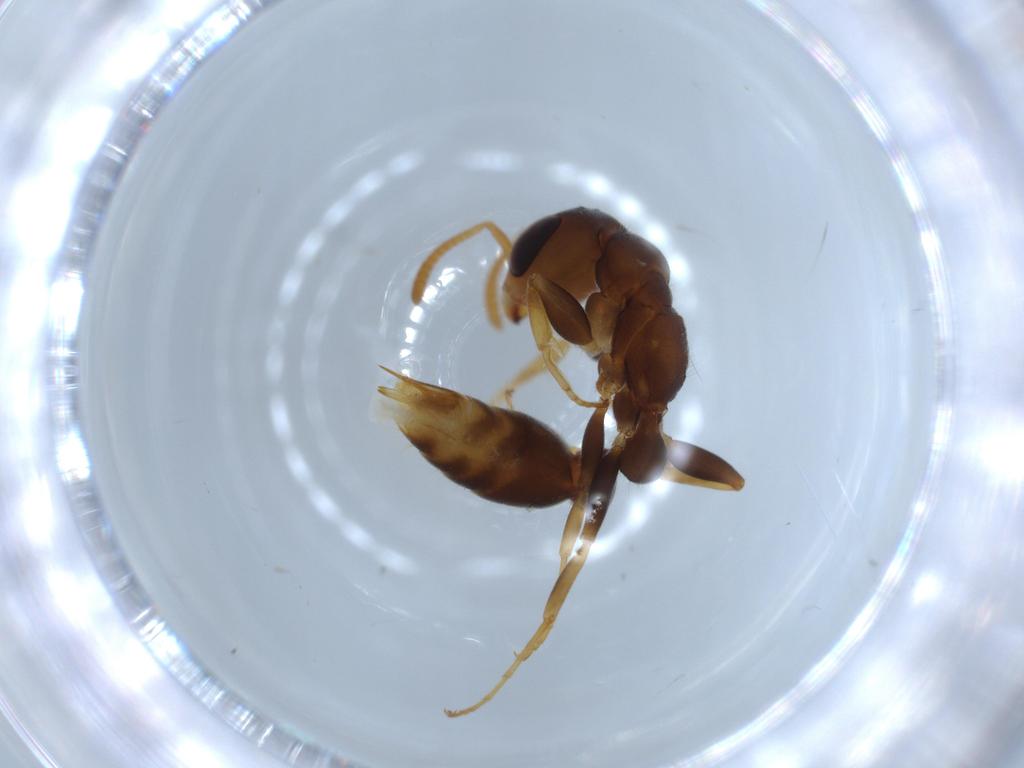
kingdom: Animalia
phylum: Arthropoda
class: Insecta
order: Hymenoptera
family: Formicidae
